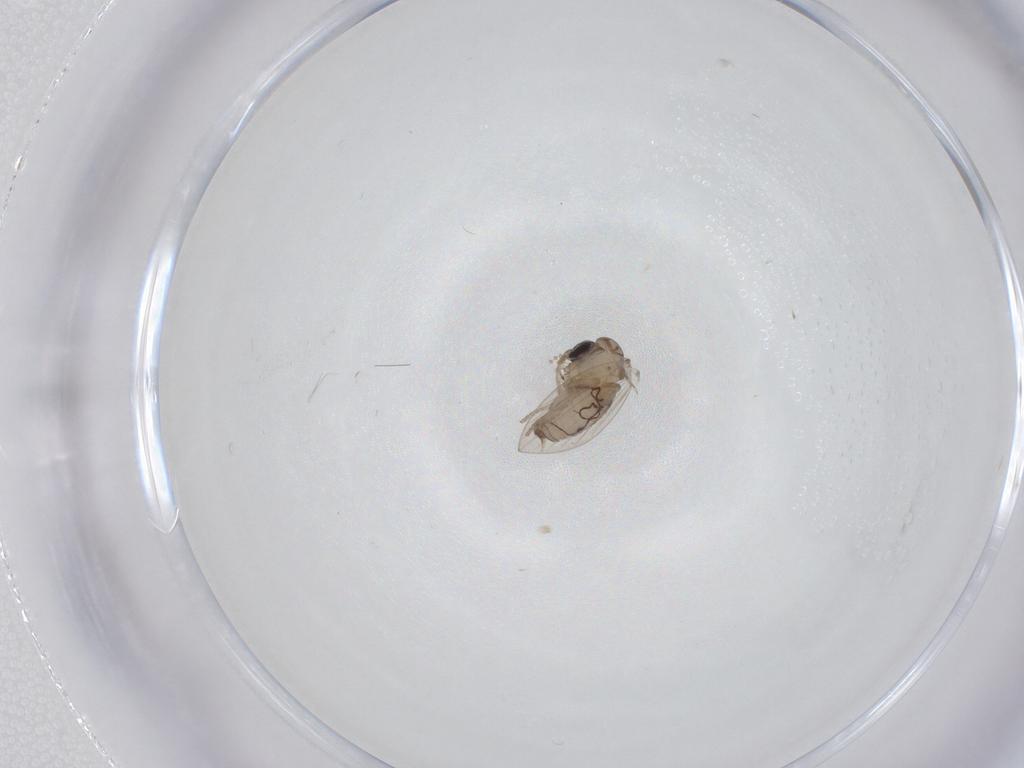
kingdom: Animalia
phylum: Arthropoda
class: Insecta
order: Diptera
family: Psychodidae
